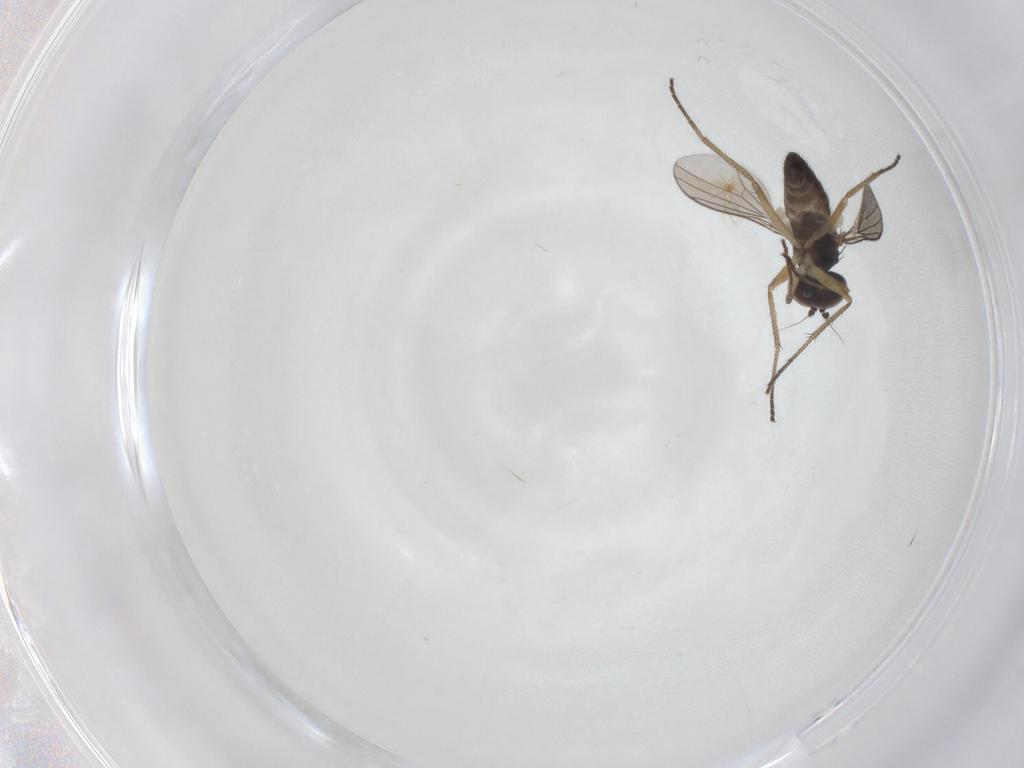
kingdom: Animalia
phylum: Arthropoda
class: Insecta
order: Diptera
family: Dolichopodidae
